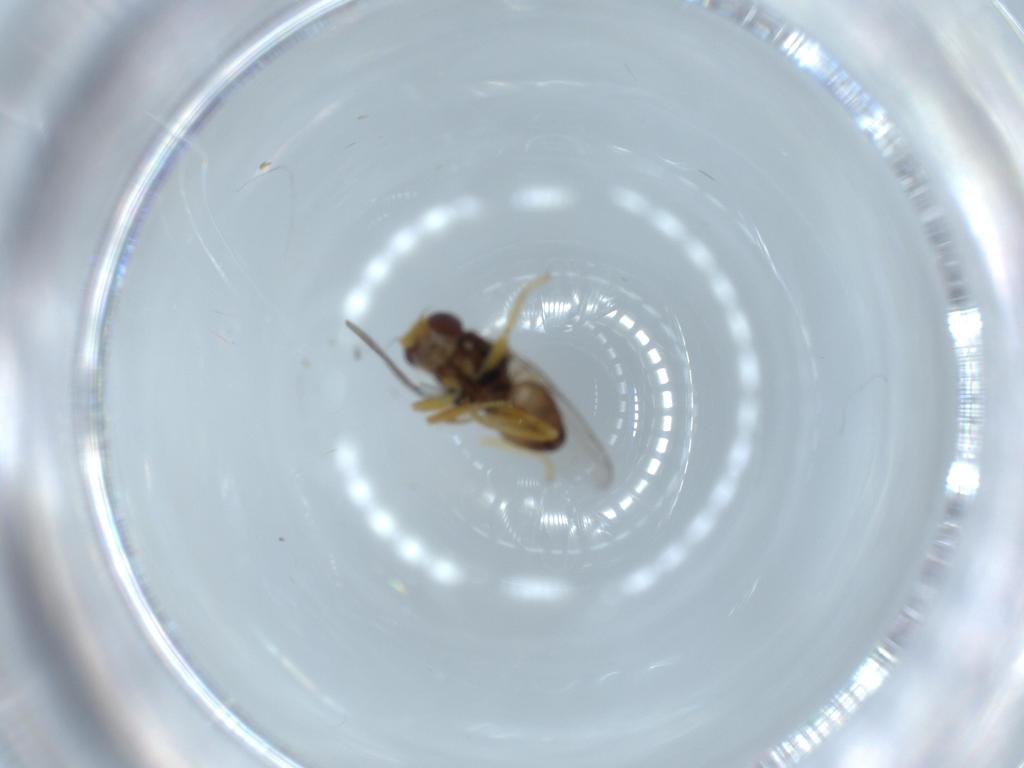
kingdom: Animalia
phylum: Arthropoda
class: Insecta
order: Diptera
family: Chloropidae
